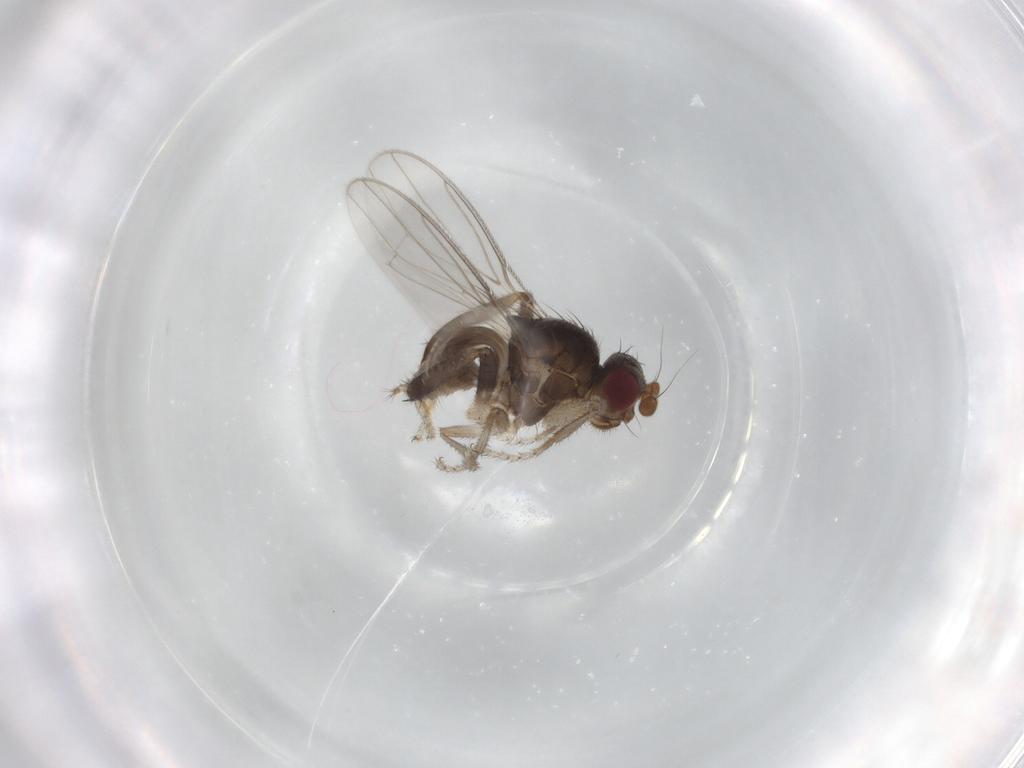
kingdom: Animalia
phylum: Arthropoda
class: Insecta
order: Diptera
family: Sphaeroceridae
